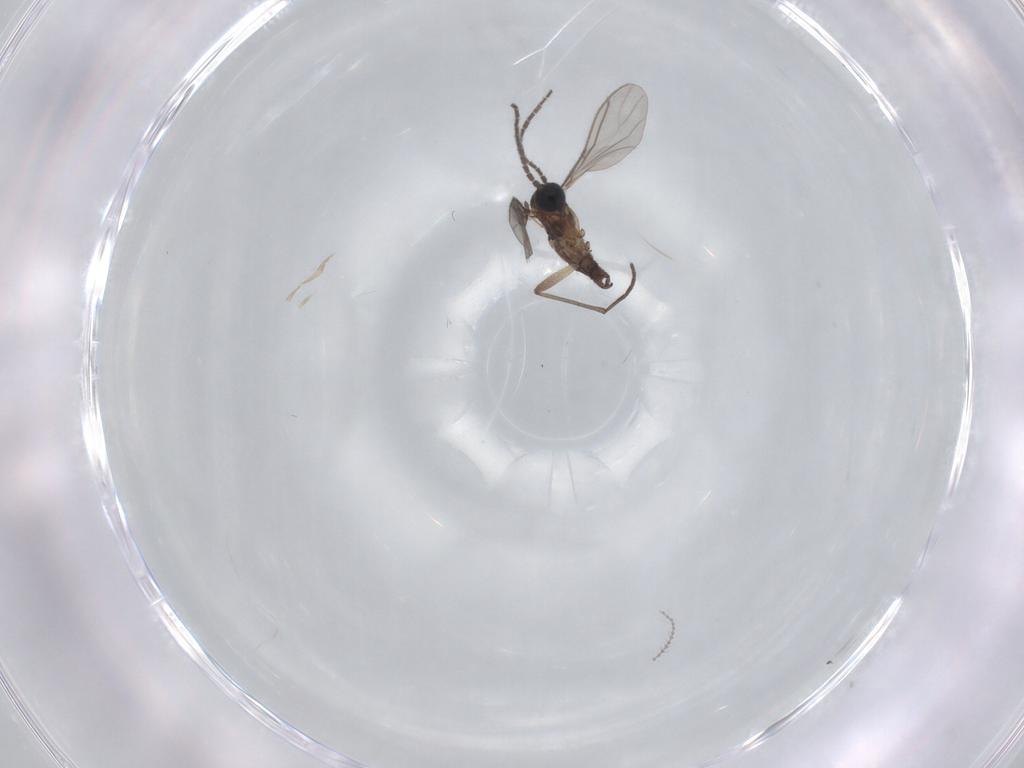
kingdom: Animalia
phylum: Arthropoda
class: Insecta
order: Diptera
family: Sciaridae
